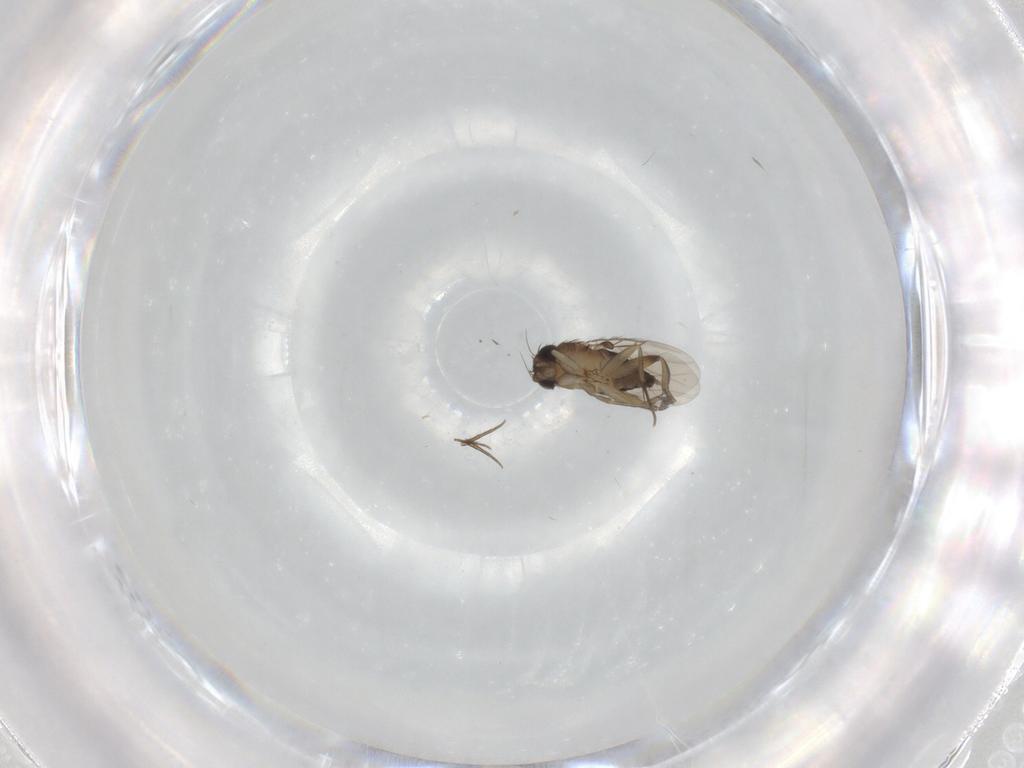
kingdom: Animalia
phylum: Arthropoda
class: Insecta
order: Diptera
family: Phoridae
